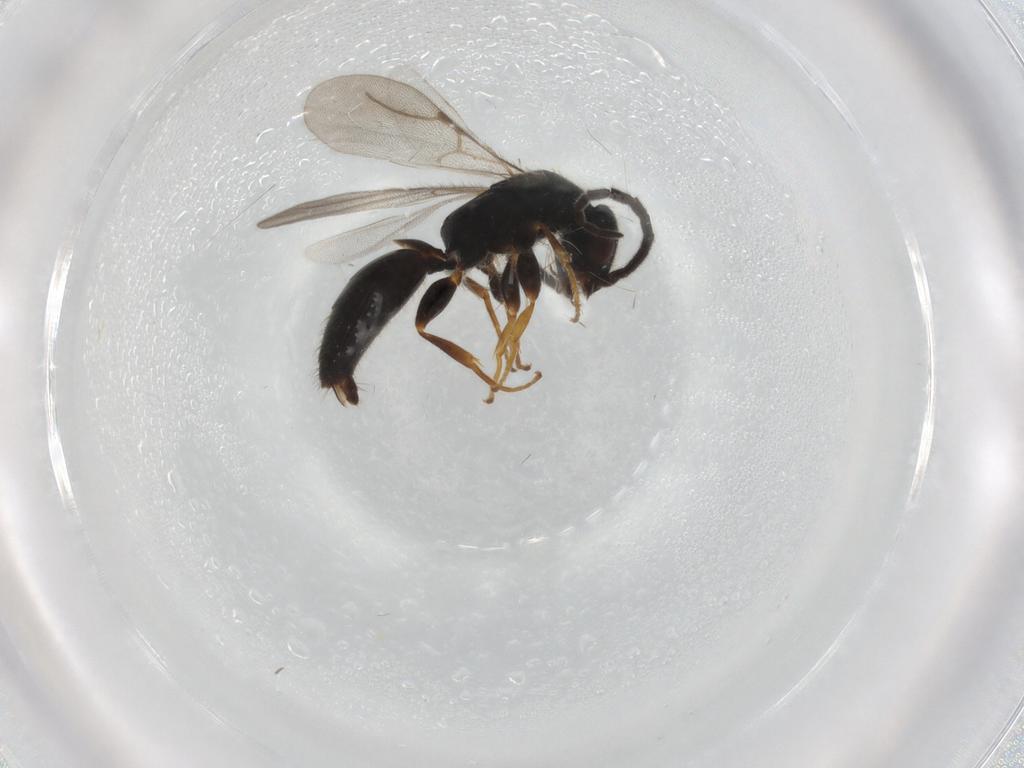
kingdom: Animalia
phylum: Arthropoda
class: Insecta
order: Hymenoptera
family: Bethylidae
